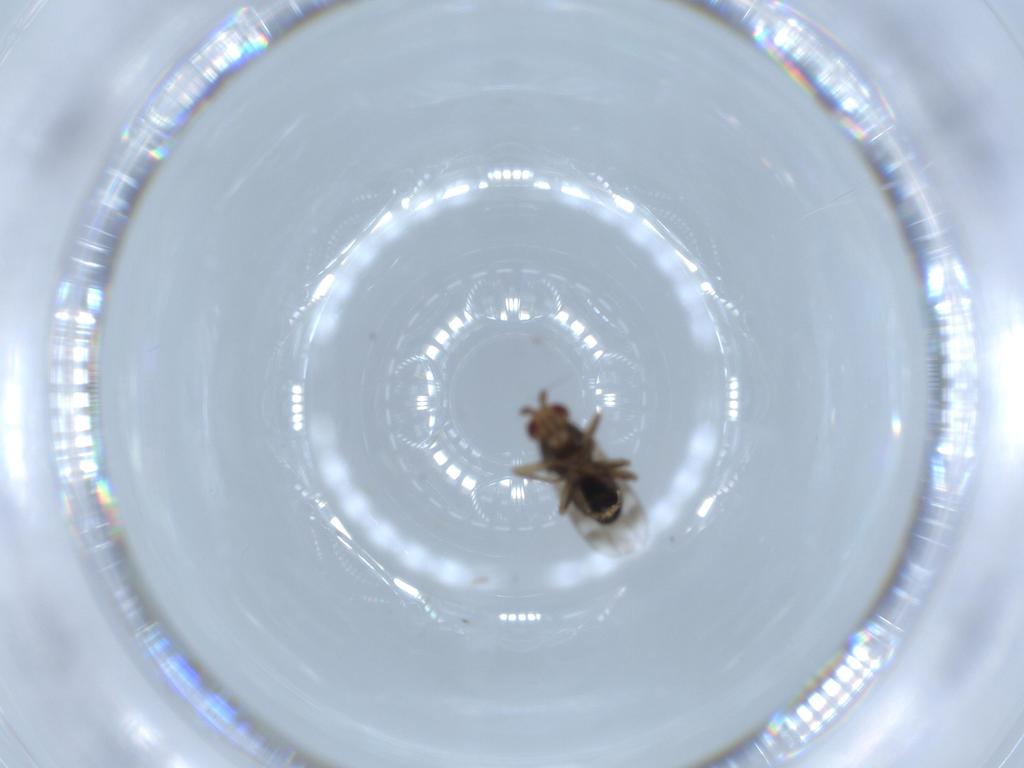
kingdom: Animalia
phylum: Arthropoda
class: Insecta
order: Diptera
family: Sphaeroceridae
